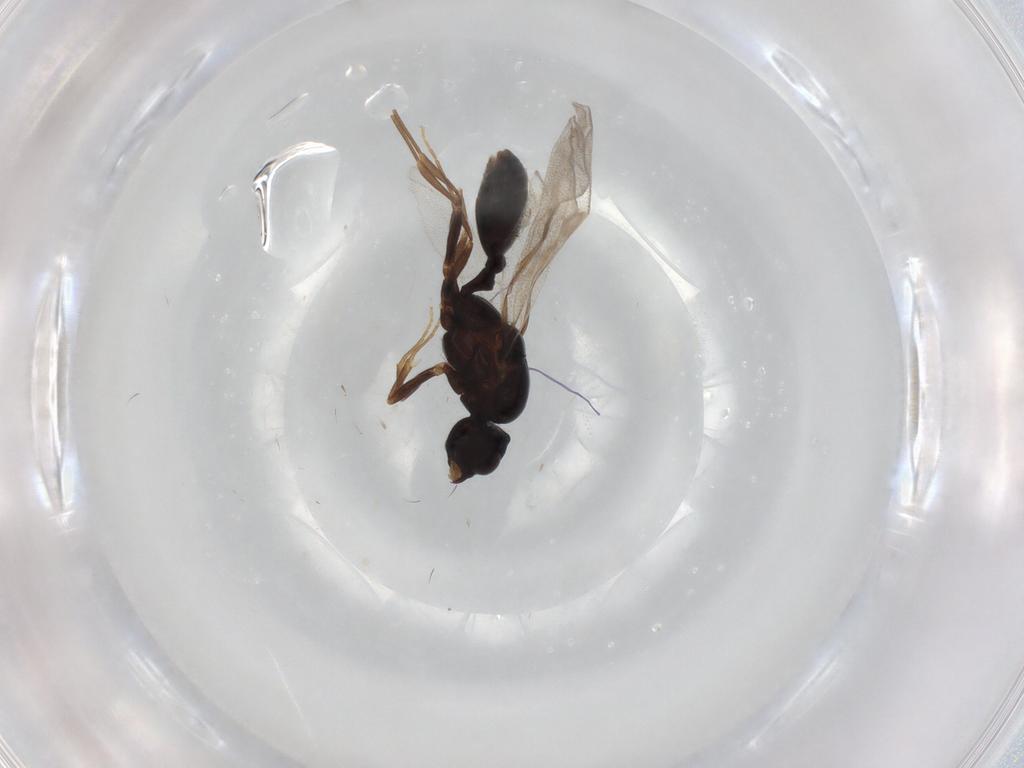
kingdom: Animalia
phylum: Arthropoda
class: Insecta
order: Hymenoptera
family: Formicidae
